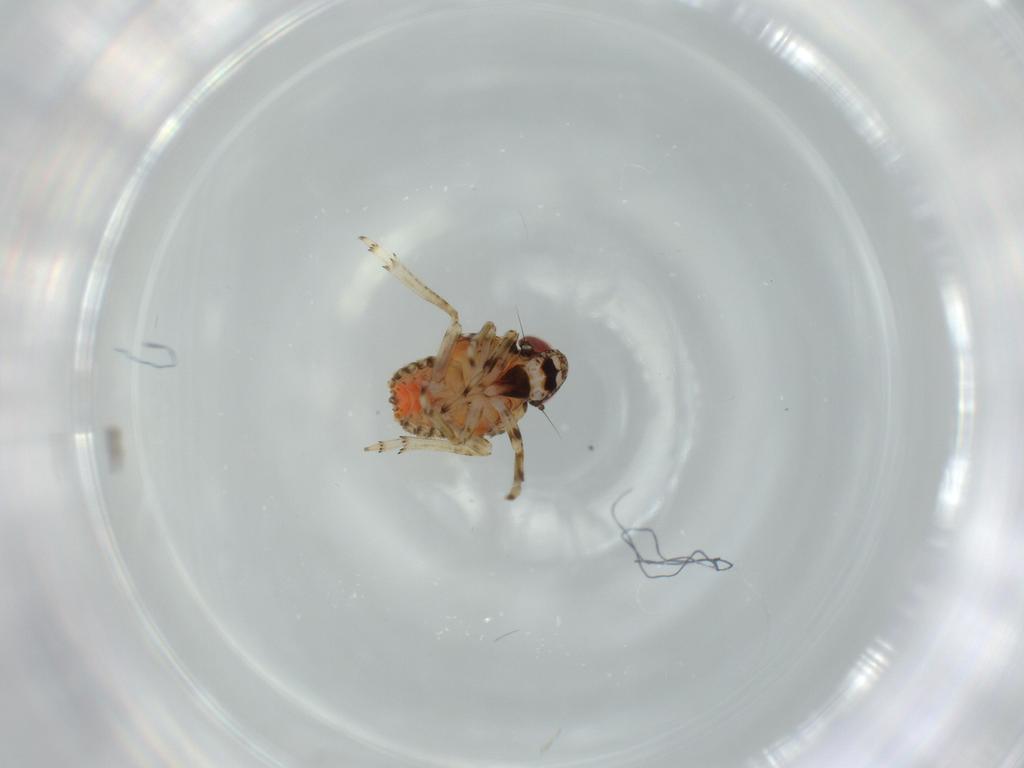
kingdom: Animalia
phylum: Arthropoda
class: Insecta
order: Hemiptera
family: Issidae
